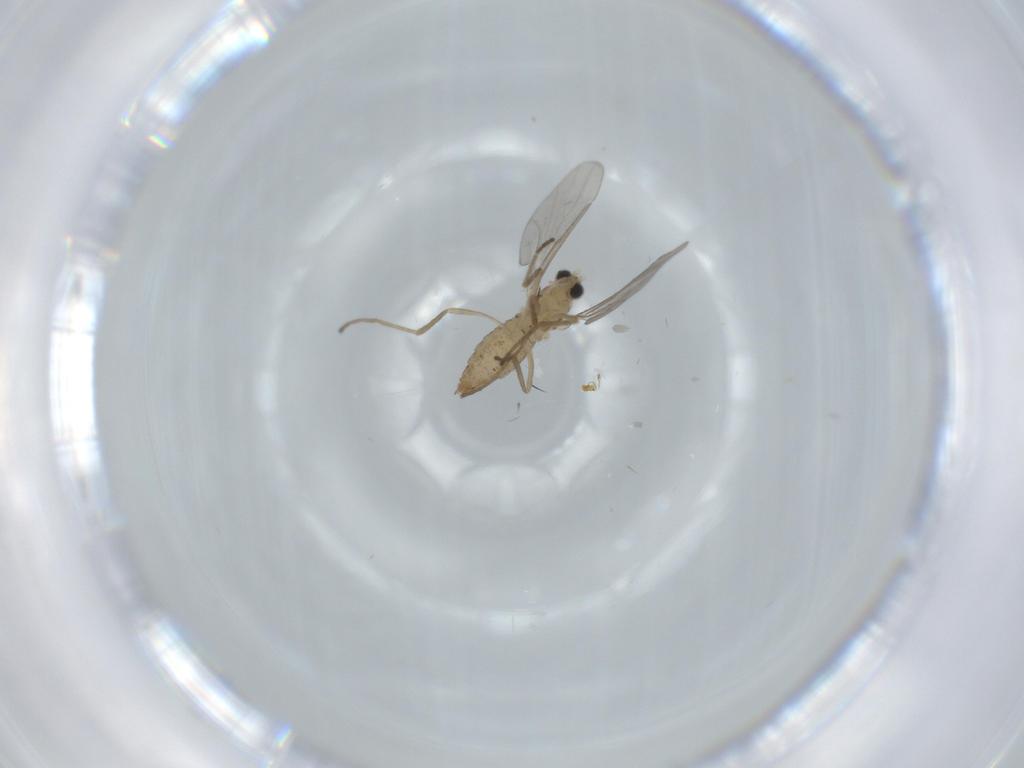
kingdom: Animalia
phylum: Arthropoda
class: Insecta
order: Diptera
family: Cecidomyiidae
